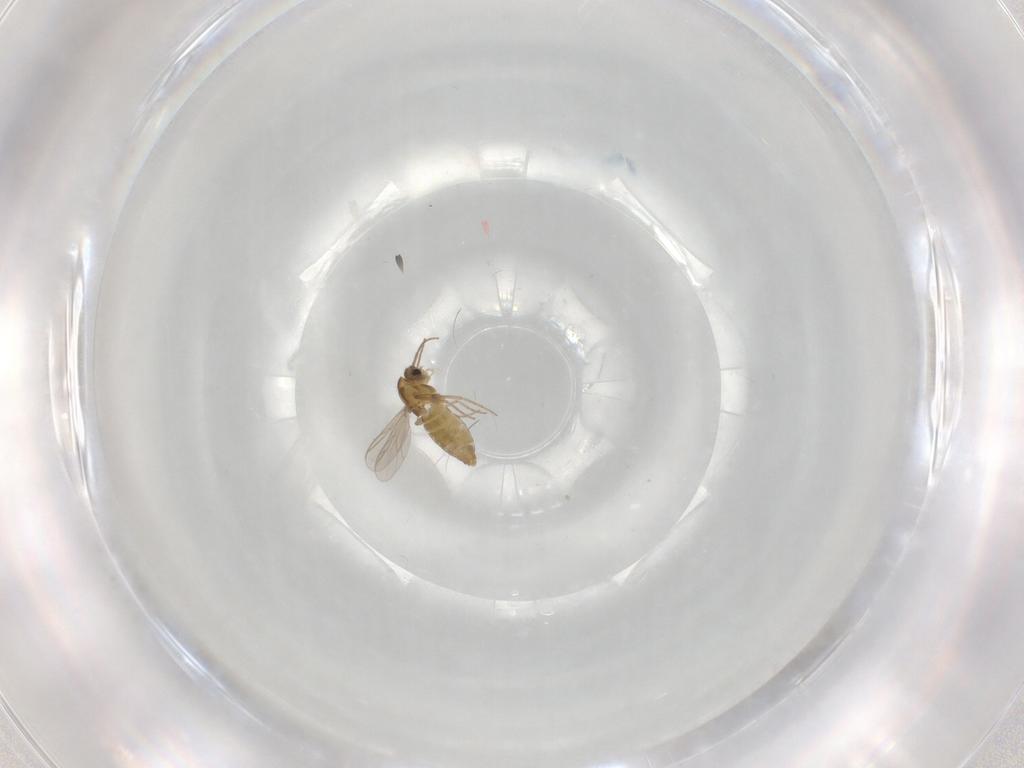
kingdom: Animalia
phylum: Arthropoda
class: Insecta
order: Diptera
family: Chironomidae
